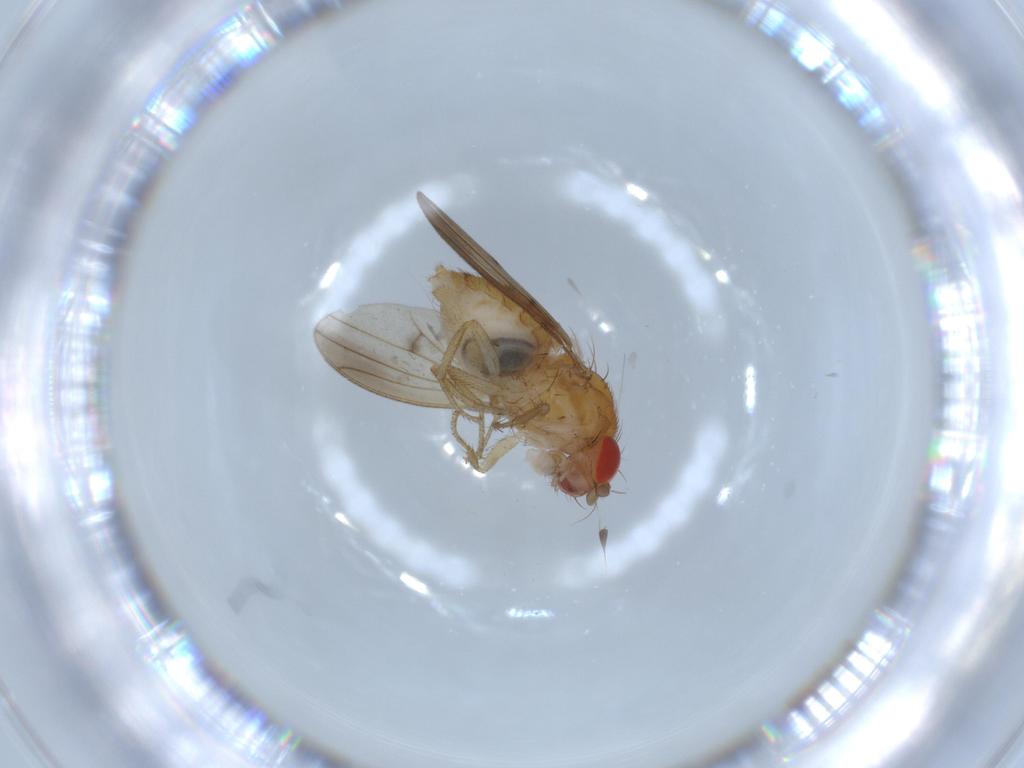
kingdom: Animalia
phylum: Arthropoda
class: Insecta
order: Diptera
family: Drosophilidae
